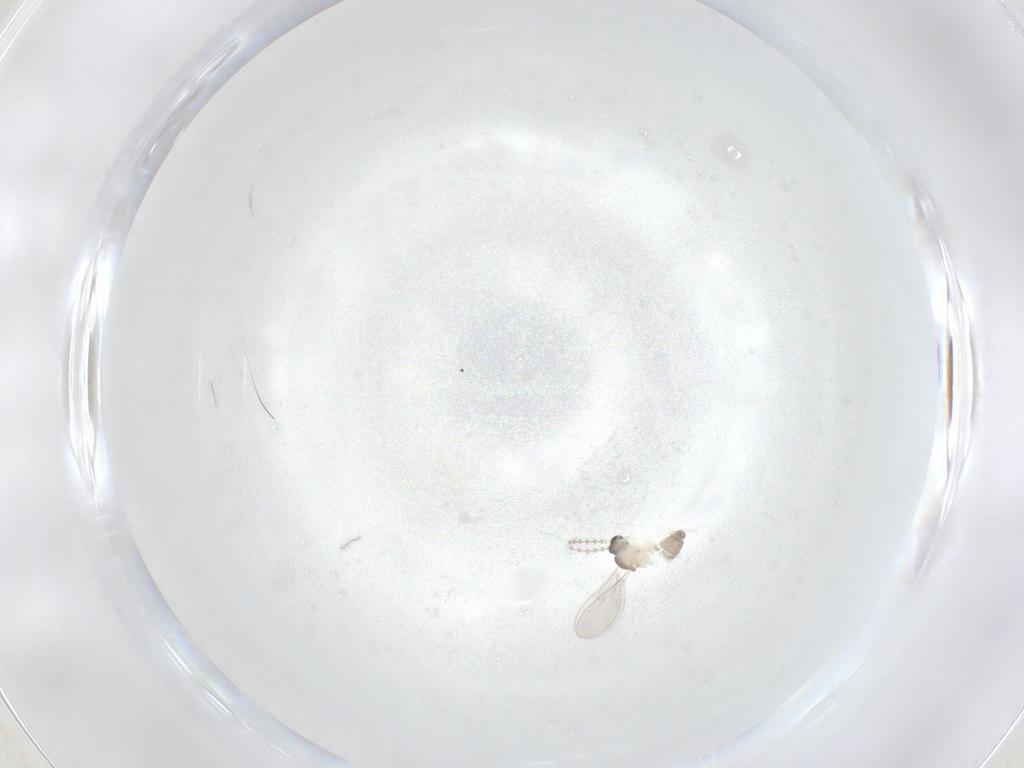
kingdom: Animalia
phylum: Arthropoda
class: Insecta
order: Diptera
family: Cecidomyiidae
